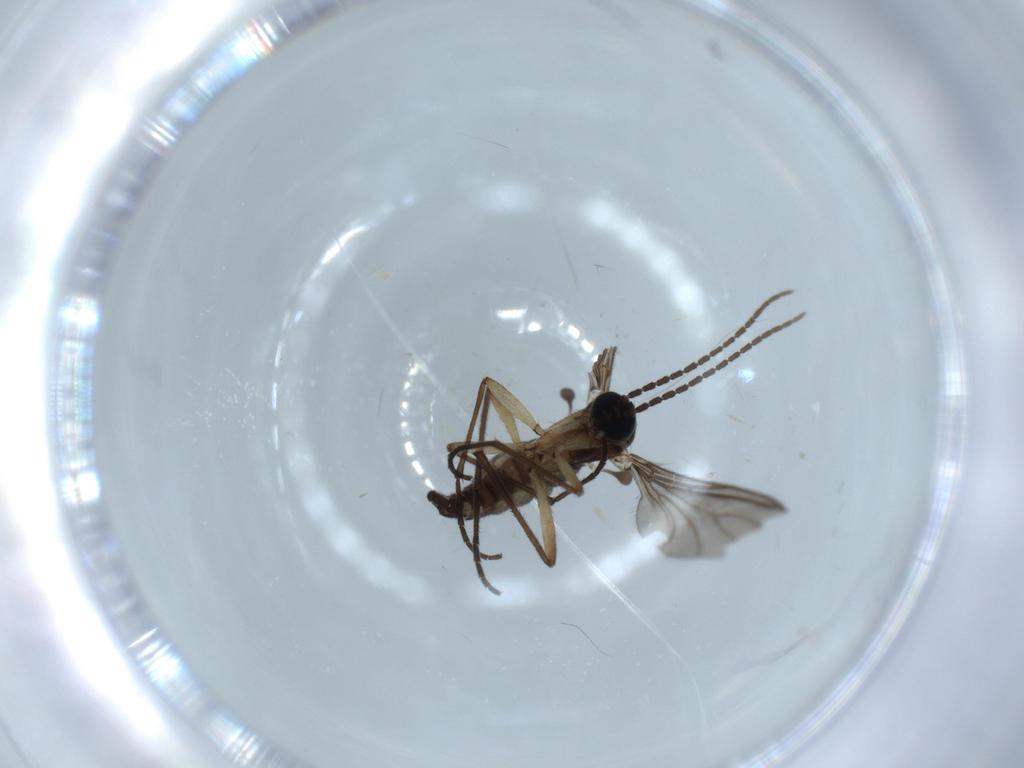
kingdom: Animalia
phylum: Arthropoda
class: Insecta
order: Diptera
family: Sciaridae
